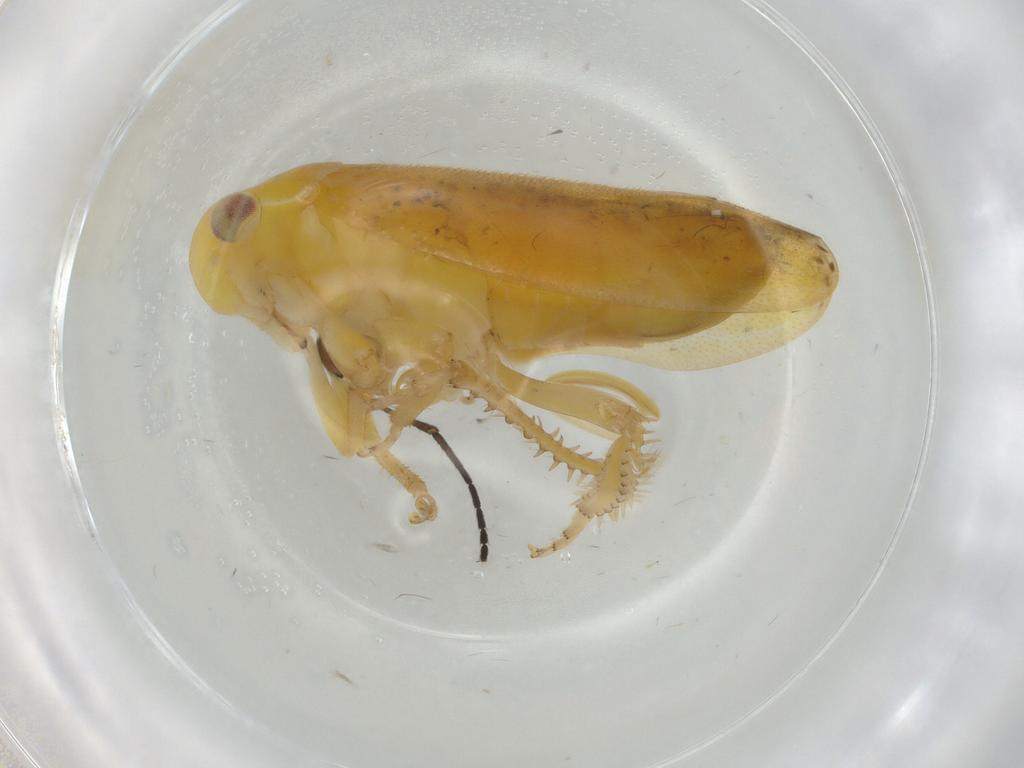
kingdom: Animalia
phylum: Arthropoda
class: Insecta
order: Hemiptera
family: Cicadellidae
